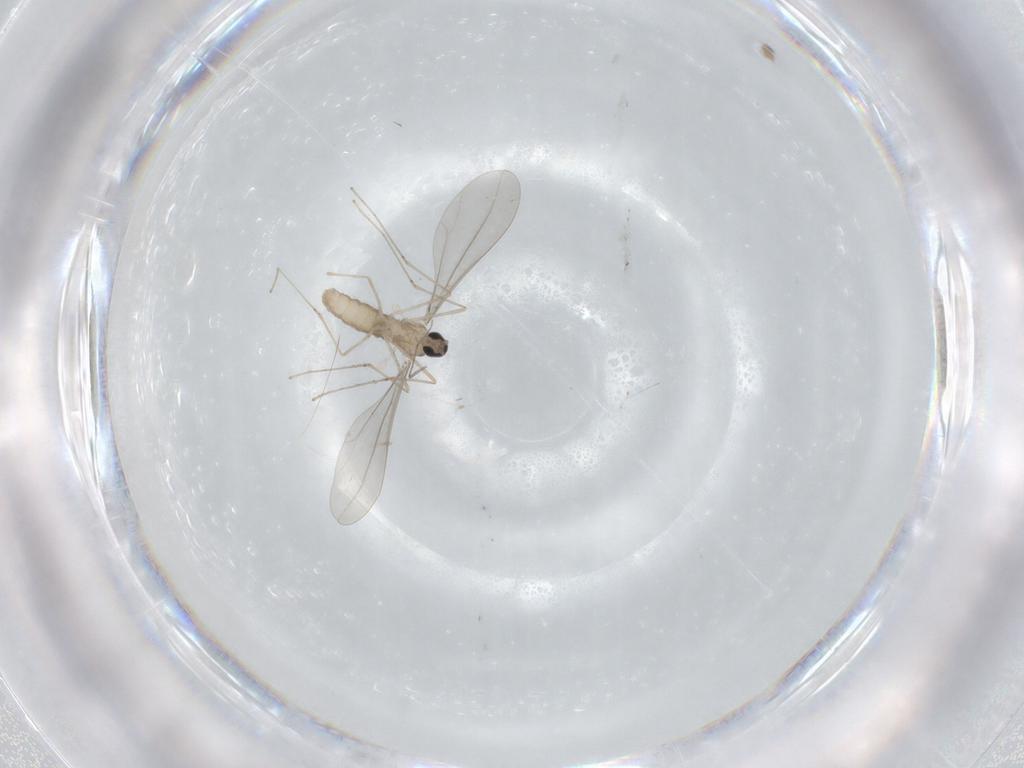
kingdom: Animalia
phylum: Arthropoda
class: Insecta
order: Diptera
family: Chironomidae
